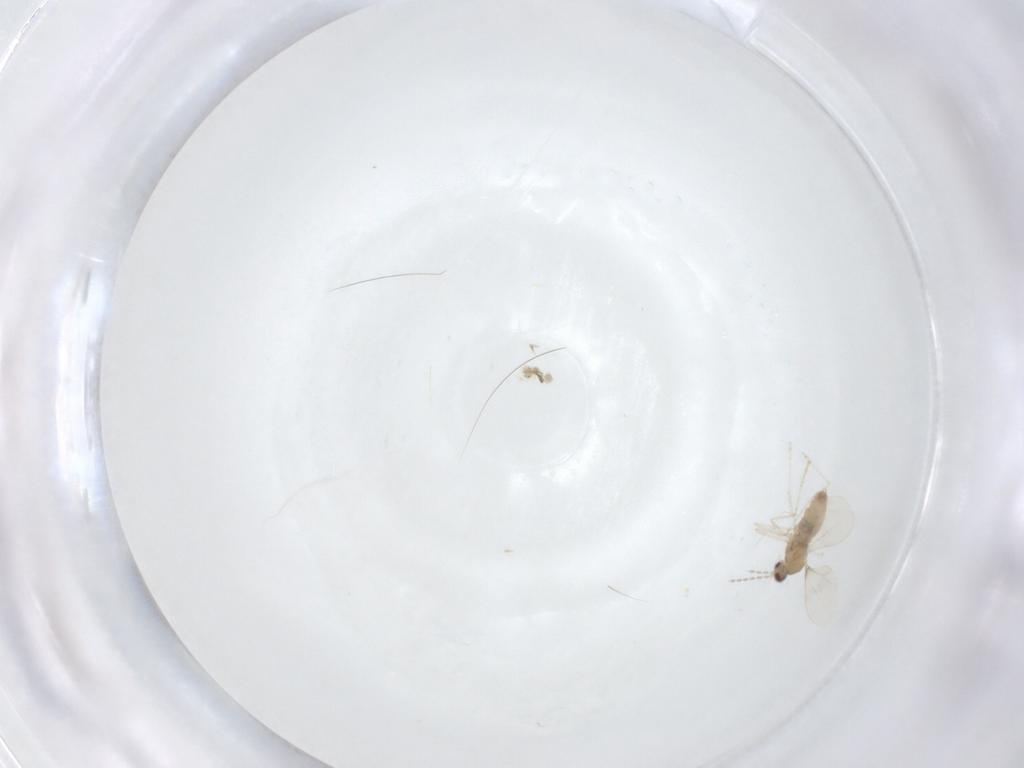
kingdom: Animalia
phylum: Arthropoda
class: Insecta
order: Diptera
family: Cecidomyiidae
